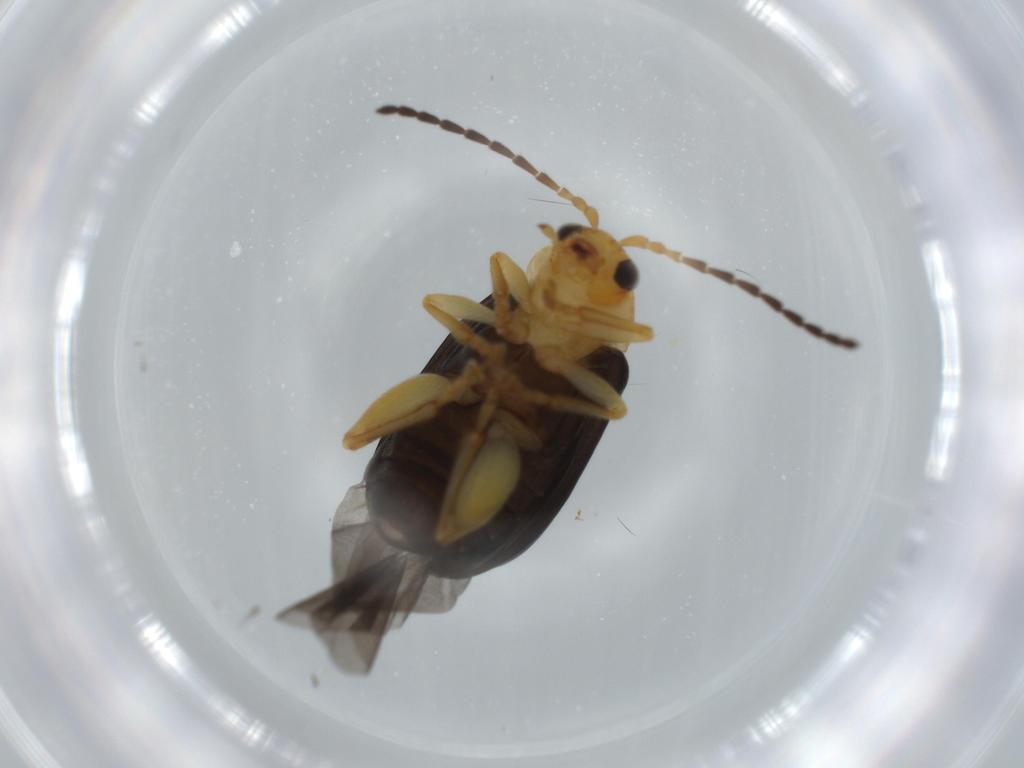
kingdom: Animalia
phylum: Arthropoda
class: Insecta
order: Coleoptera
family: Chrysomelidae
